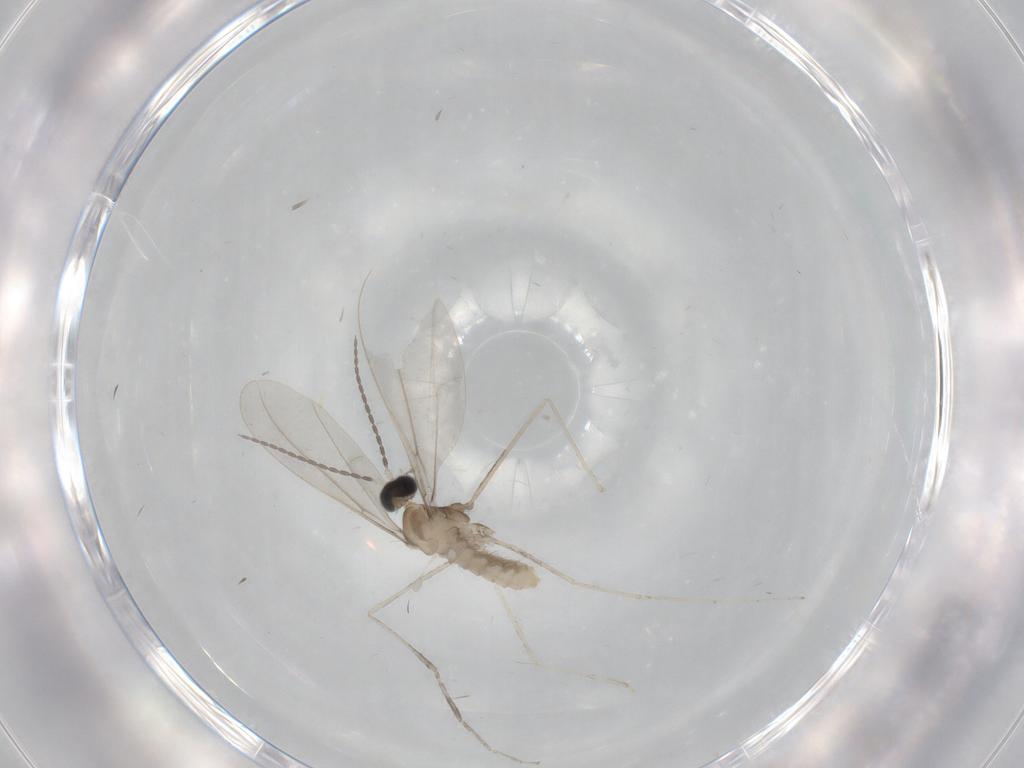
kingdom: Animalia
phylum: Arthropoda
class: Insecta
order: Diptera
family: Cecidomyiidae
